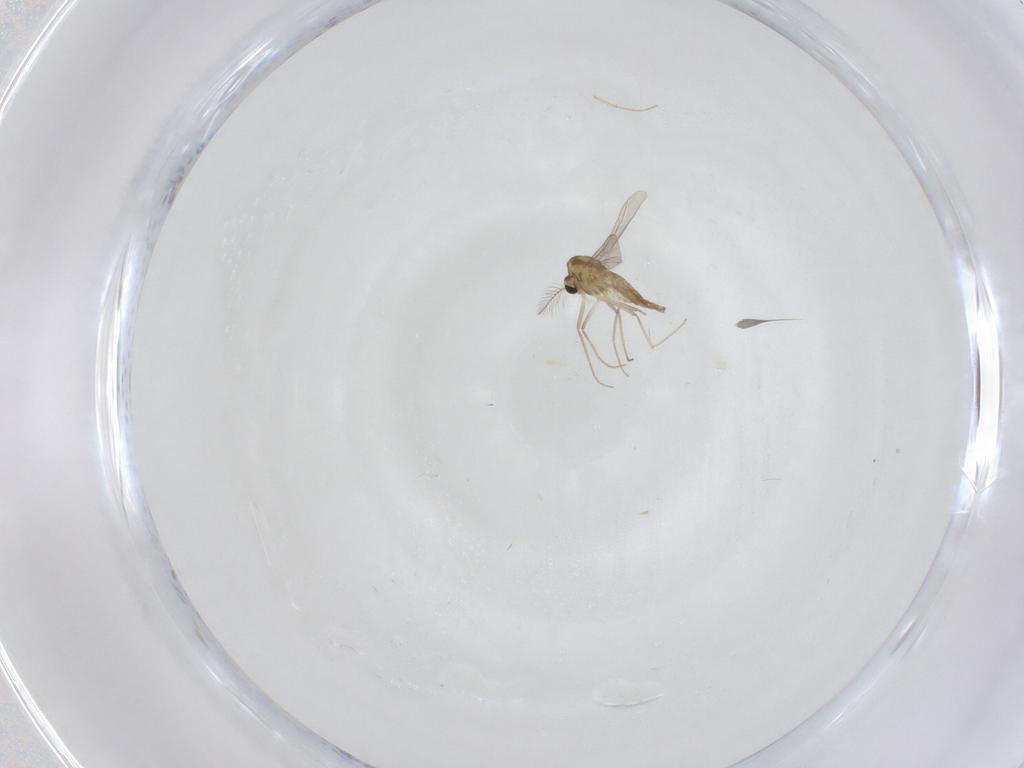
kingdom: Animalia
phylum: Arthropoda
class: Insecta
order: Diptera
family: Chironomidae
